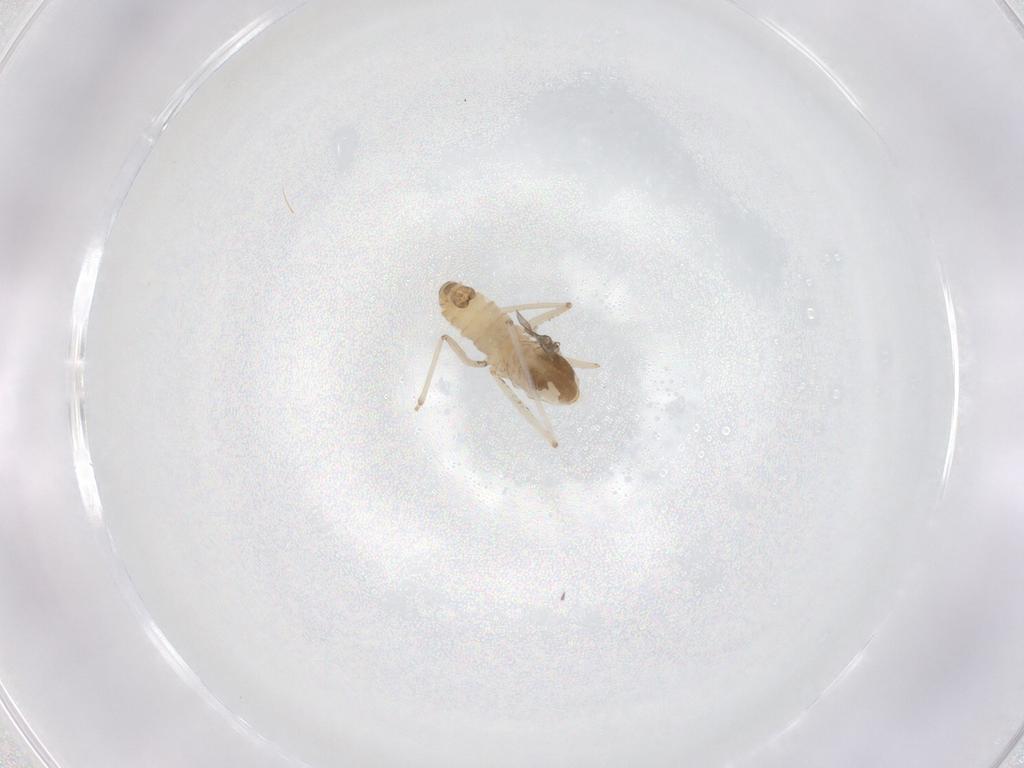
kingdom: Animalia
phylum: Arthropoda
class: Insecta
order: Diptera
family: Cecidomyiidae
